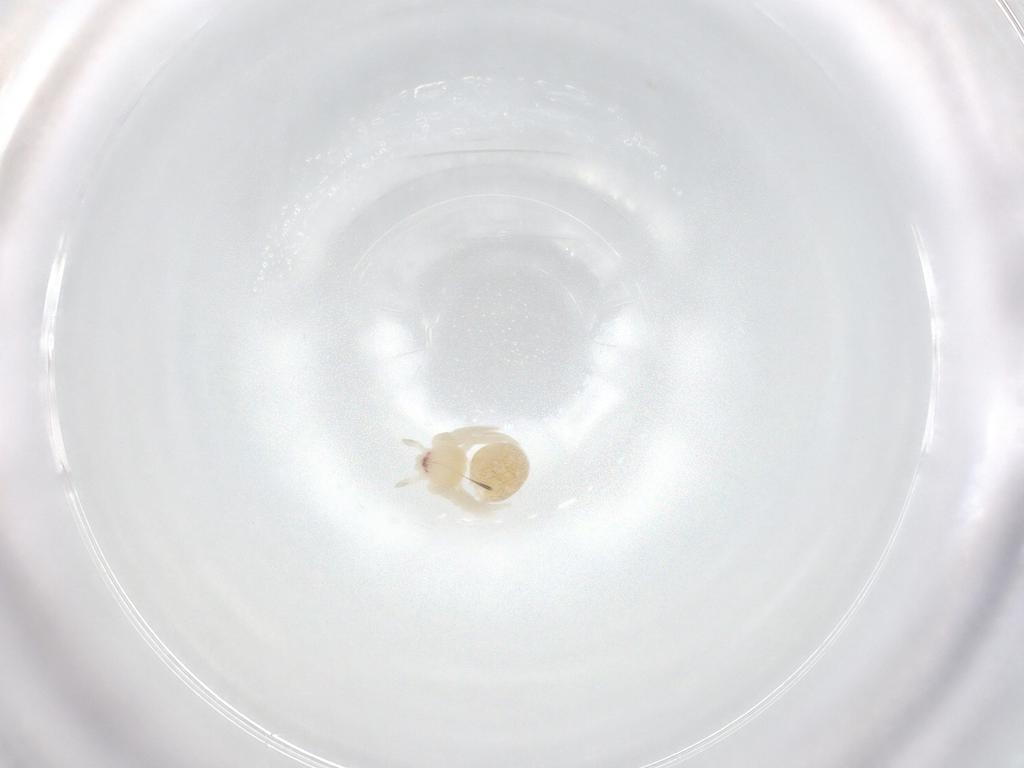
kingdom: Animalia
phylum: Arthropoda
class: Arachnida
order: Araneae
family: Theridiidae
